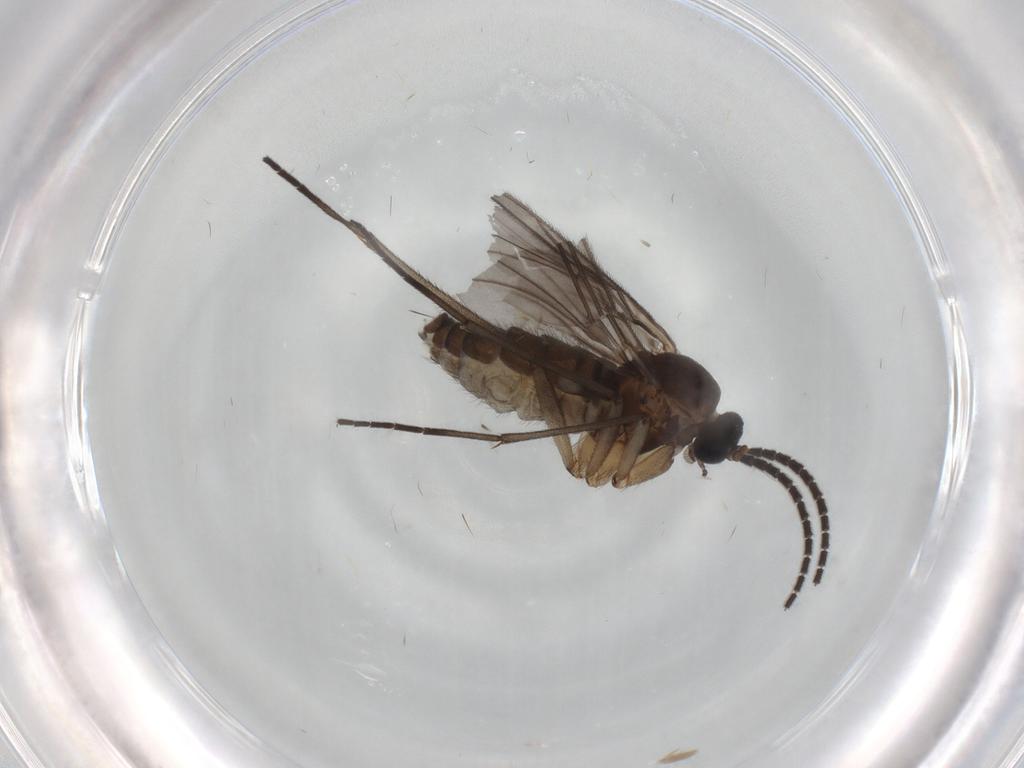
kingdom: Animalia
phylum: Arthropoda
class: Insecta
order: Diptera
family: Sciaridae
